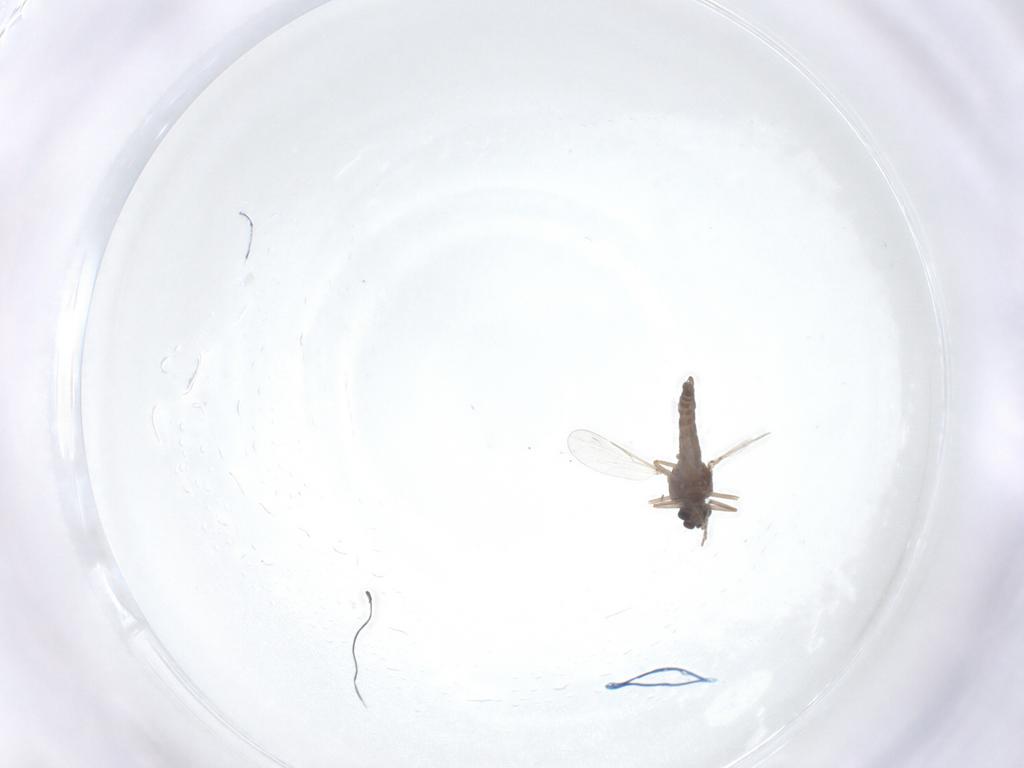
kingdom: Animalia
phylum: Arthropoda
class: Insecta
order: Diptera
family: Ceratopogonidae
